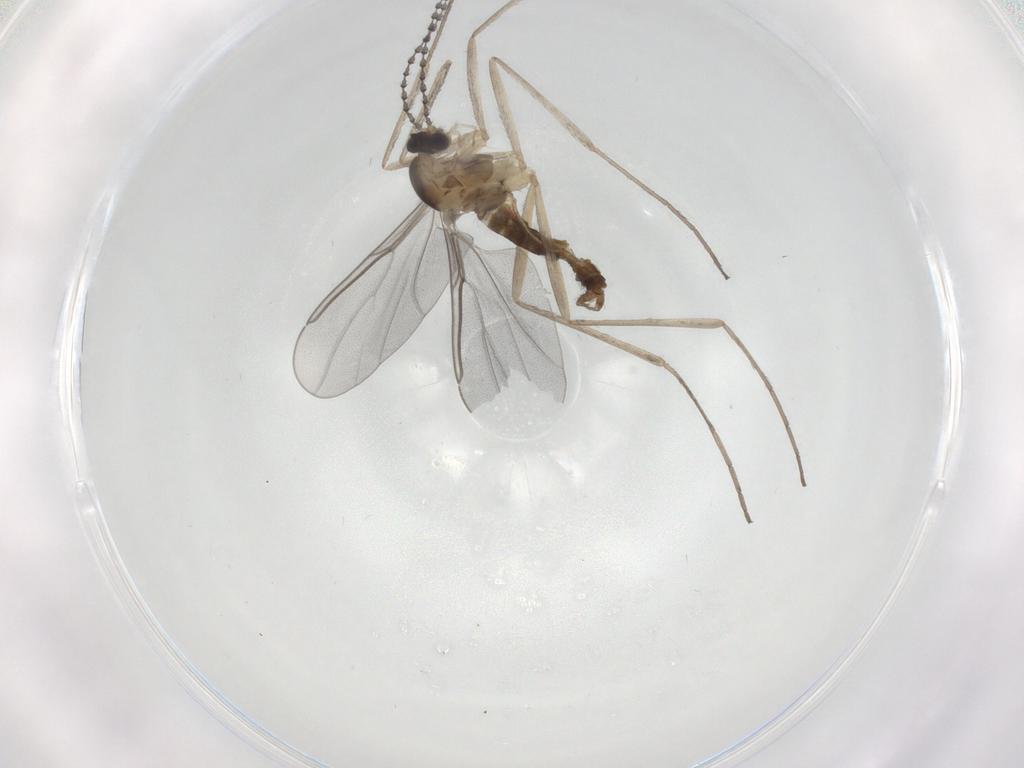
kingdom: Animalia
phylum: Arthropoda
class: Insecta
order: Diptera
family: Cecidomyiidae
